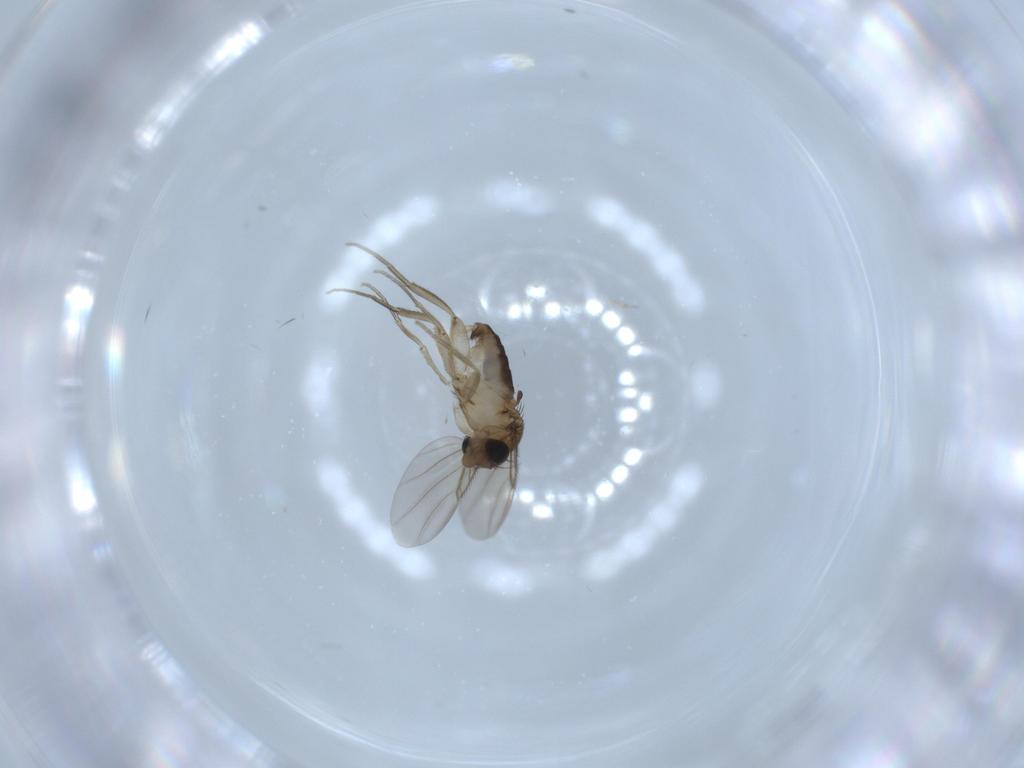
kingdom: Animalia
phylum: Arthropoda
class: Insecta
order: Diptera
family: Phoridae
